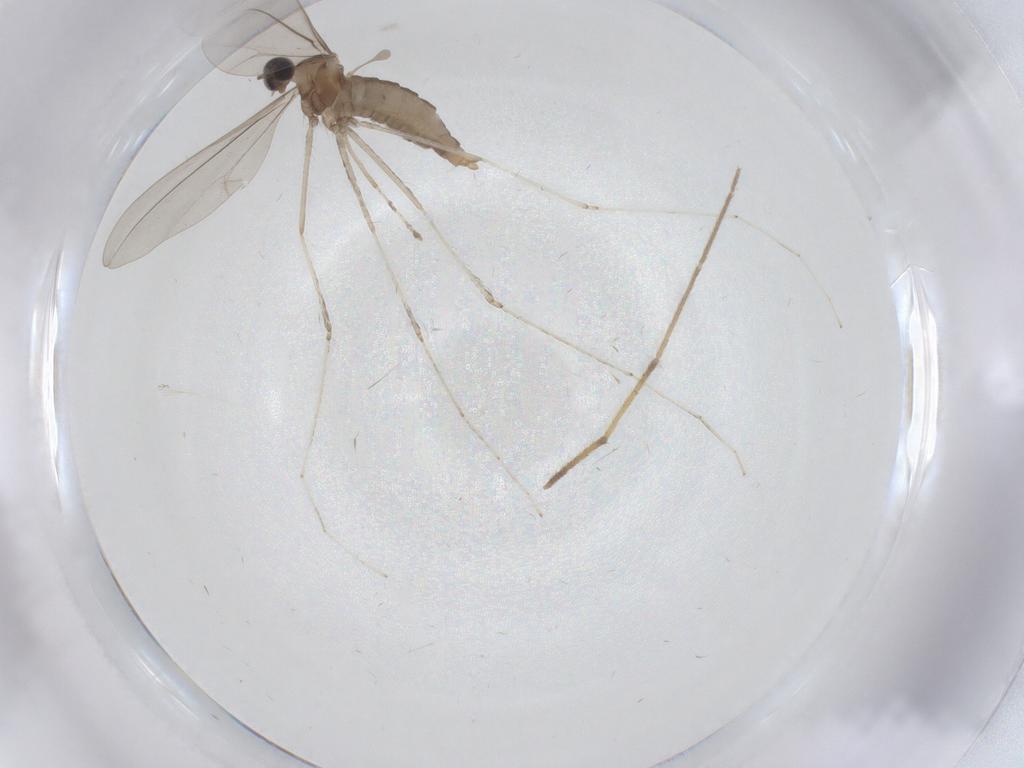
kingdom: Animalia
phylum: Arthropoda
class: Insecta
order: Diptera
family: Cecidomyiidae
